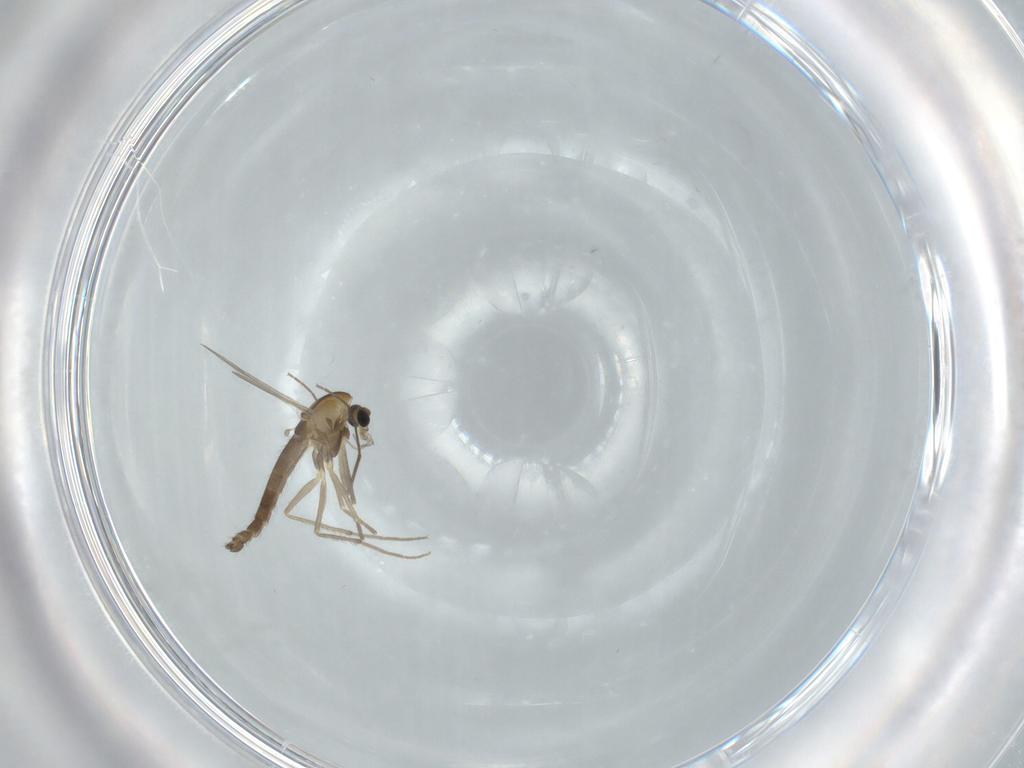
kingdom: Animalia
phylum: Arthropoda
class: Insecta
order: Diptera
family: Chironomidae
